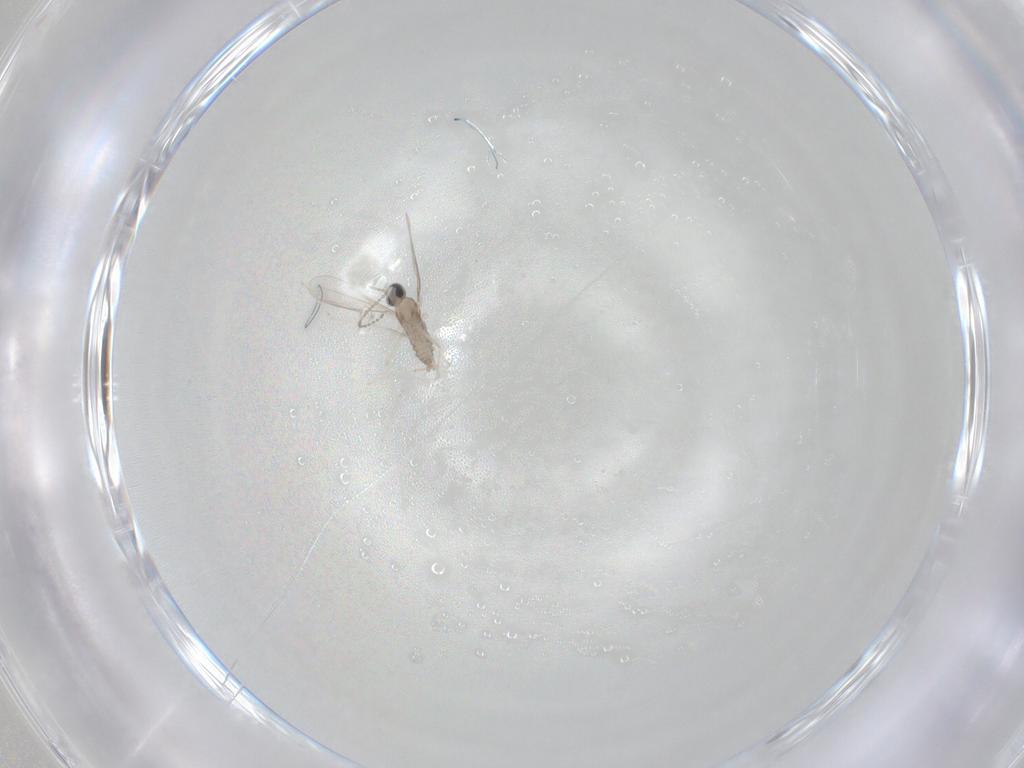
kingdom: Animalia
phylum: Arthropoda
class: Insecta
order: Diptera
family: Cecidomyiidae
